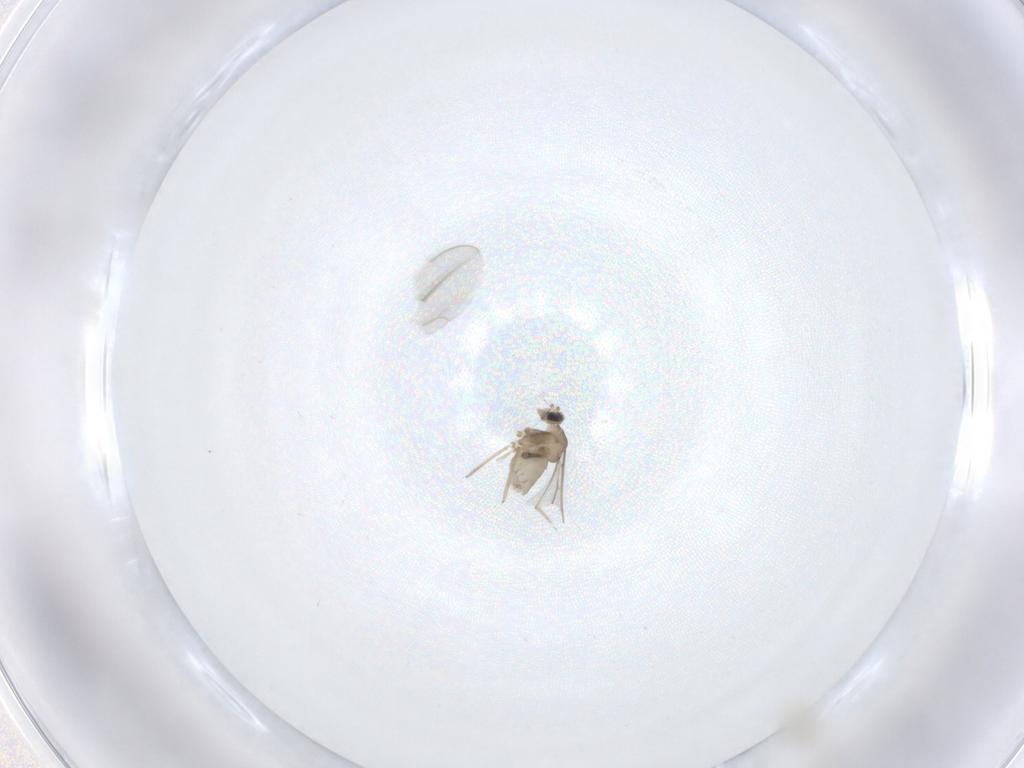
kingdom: Animalia
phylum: Arthropoda
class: Insecta
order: Diptera
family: Cecidomyiidae
